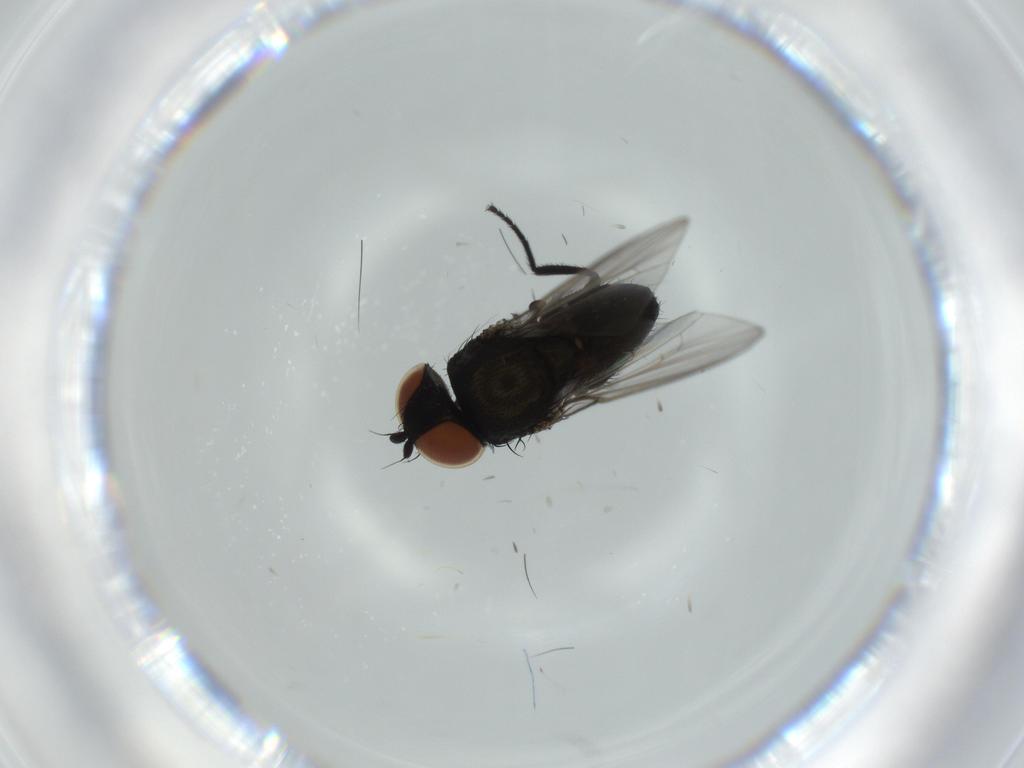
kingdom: Animalia
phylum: Arthropoda
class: Insecta
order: Diptera
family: Milichiidae
